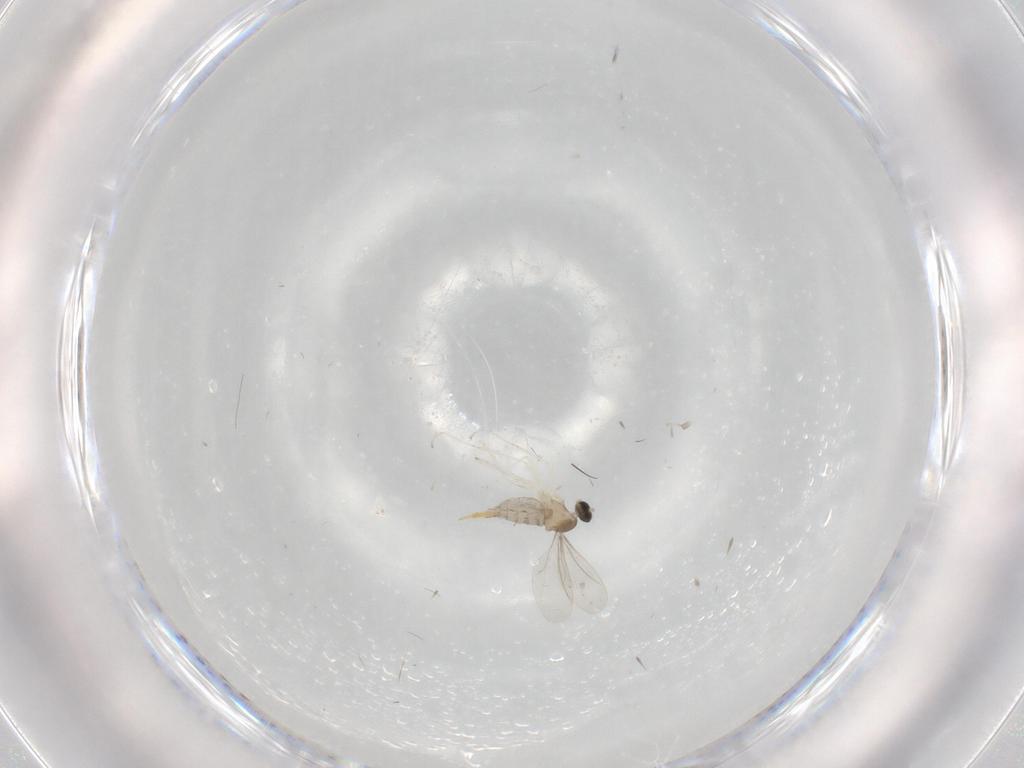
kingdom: Animalia
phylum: Arthropoda
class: Insecta
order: Diptera
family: Cecidomyiidae
